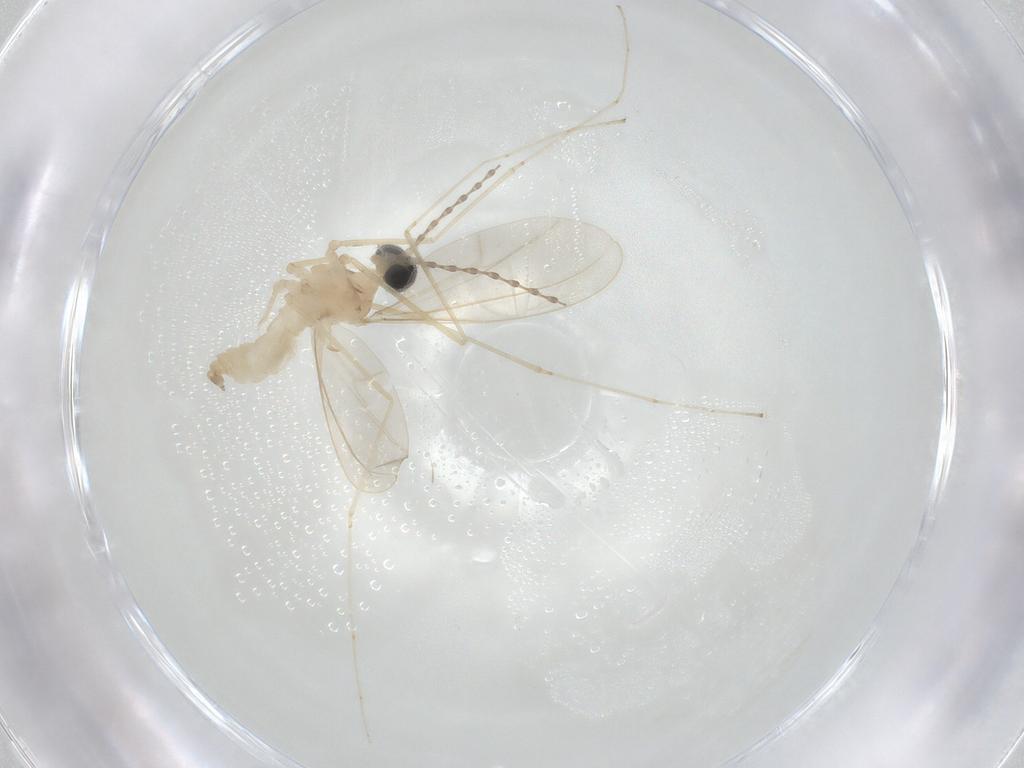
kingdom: Animalia
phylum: Arthropoda
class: Insecta
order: Diptera
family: Cecidomyiidae
